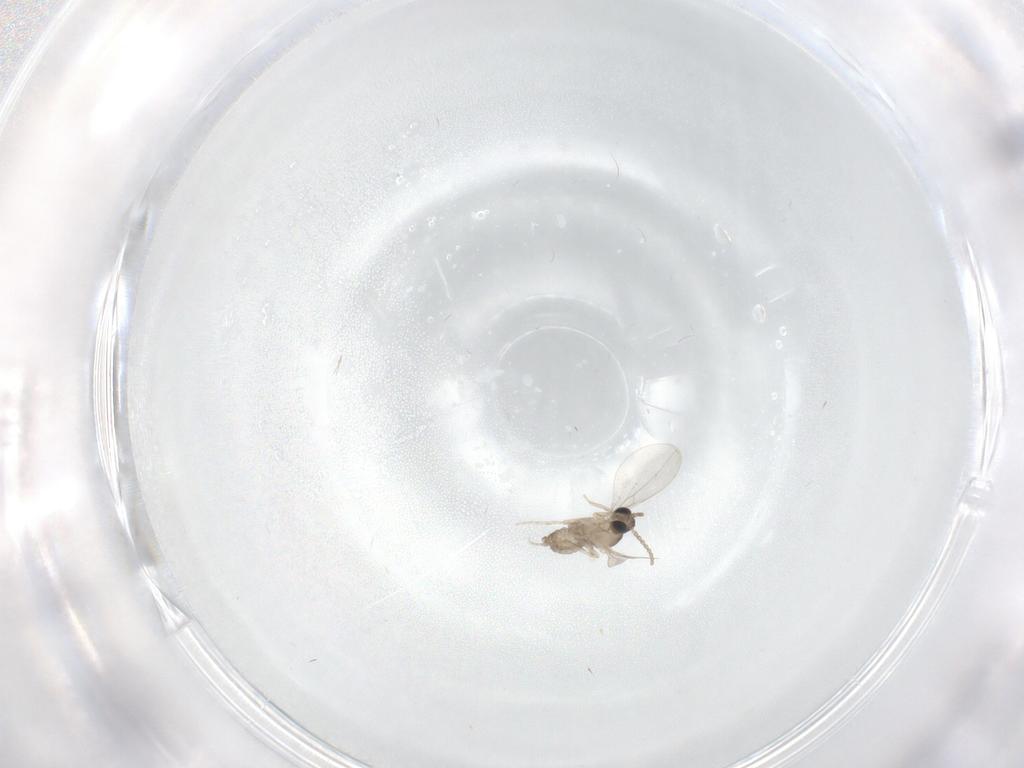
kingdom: Animalia
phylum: Arthropoda
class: Insecta
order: Diptera
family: Cecidomyiidae
